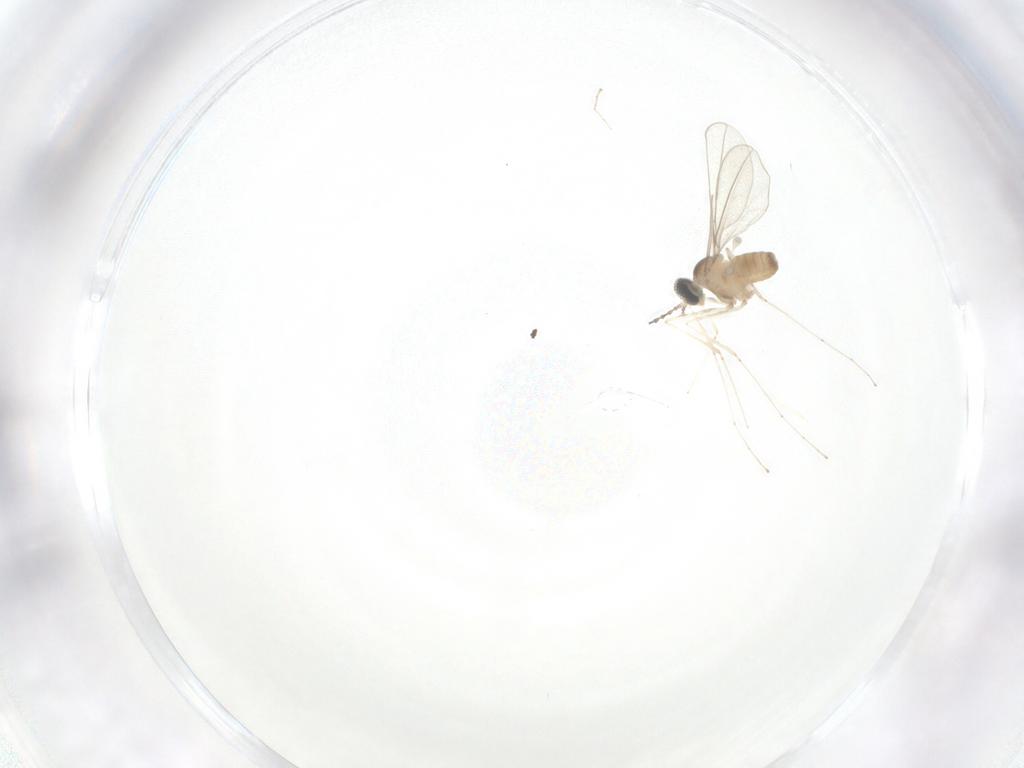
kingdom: Animalia
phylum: Arthropoda
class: Insecta
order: Diptera
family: Cecidomyiidae
